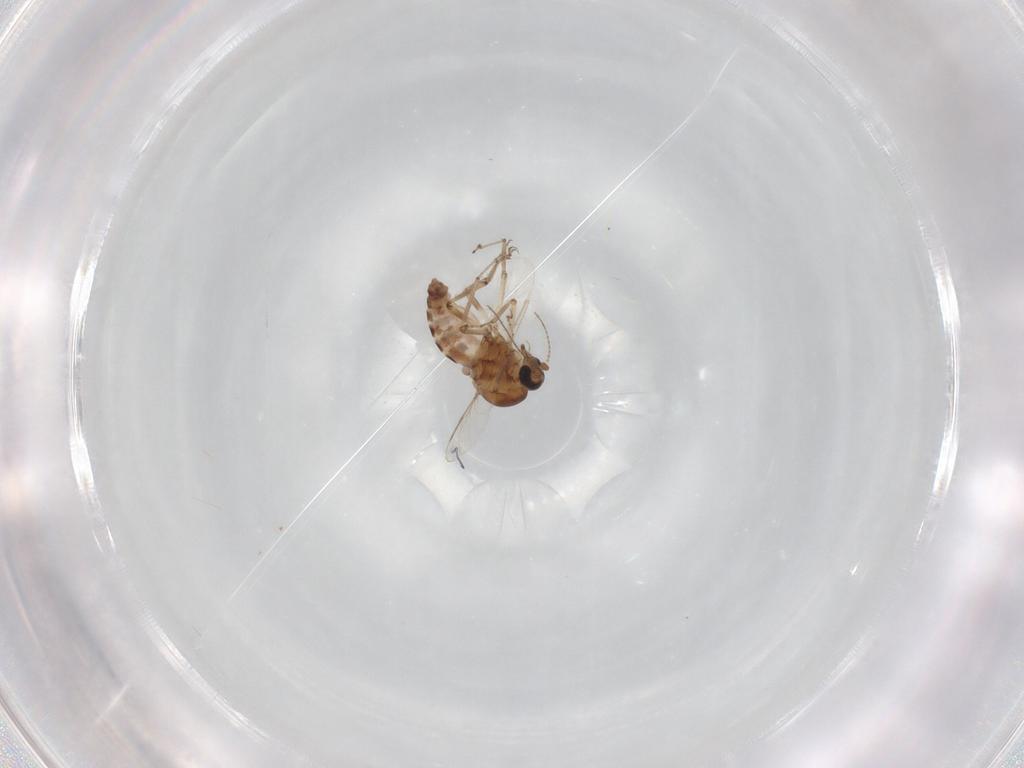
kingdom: Animalia
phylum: Arthropoda
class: Insecta
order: Diptera
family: Ceratopogonidae
